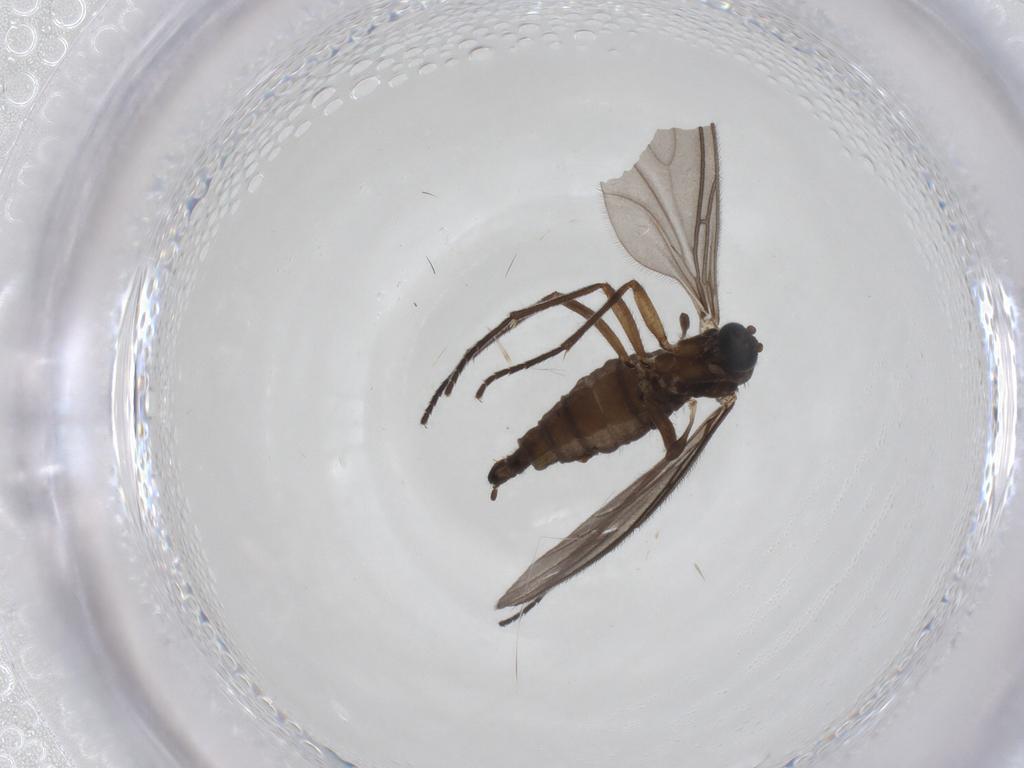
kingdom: Animalia
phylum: Arthropoda
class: Insecta
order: Diptera
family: Sciaridae
